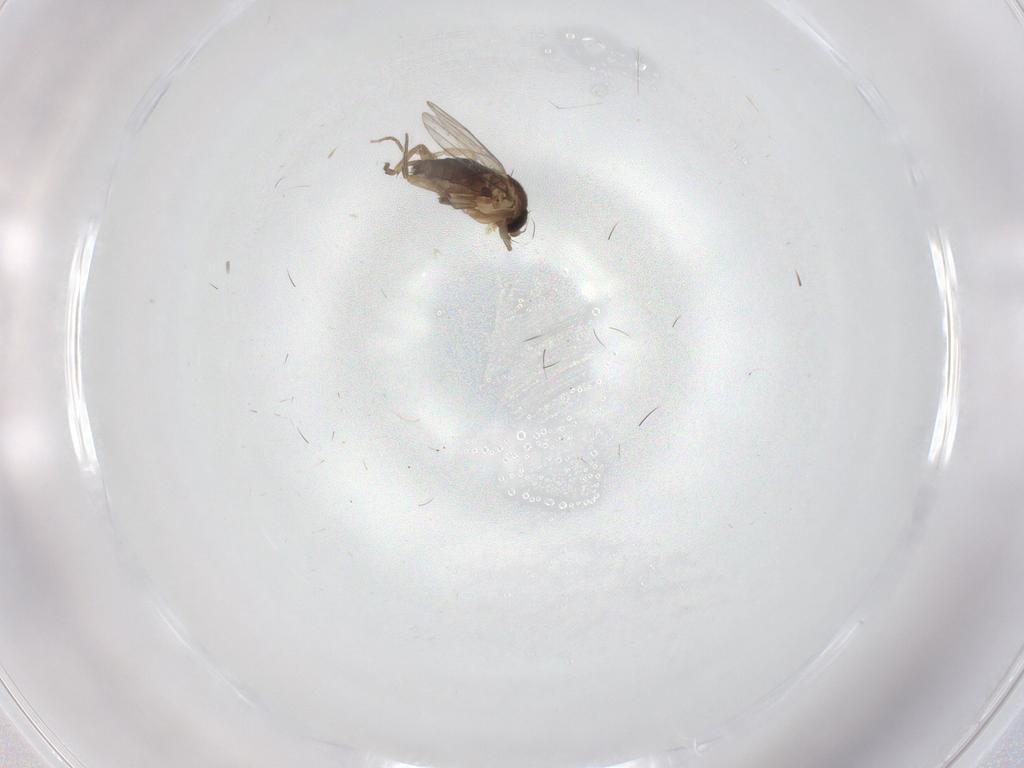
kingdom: Animalia
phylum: Arthropoda
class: Insecta
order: Diptera
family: Phoridae
